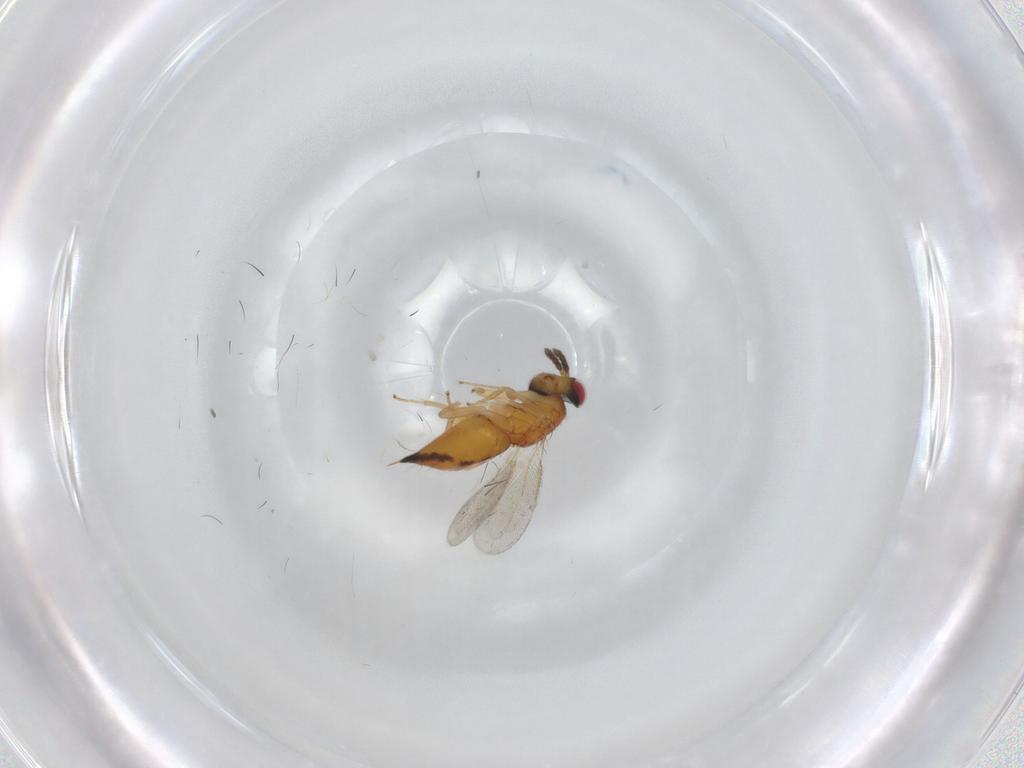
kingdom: Animalia
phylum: Arthropoda
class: Insecta
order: Hymenoptera
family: Eulophidae
